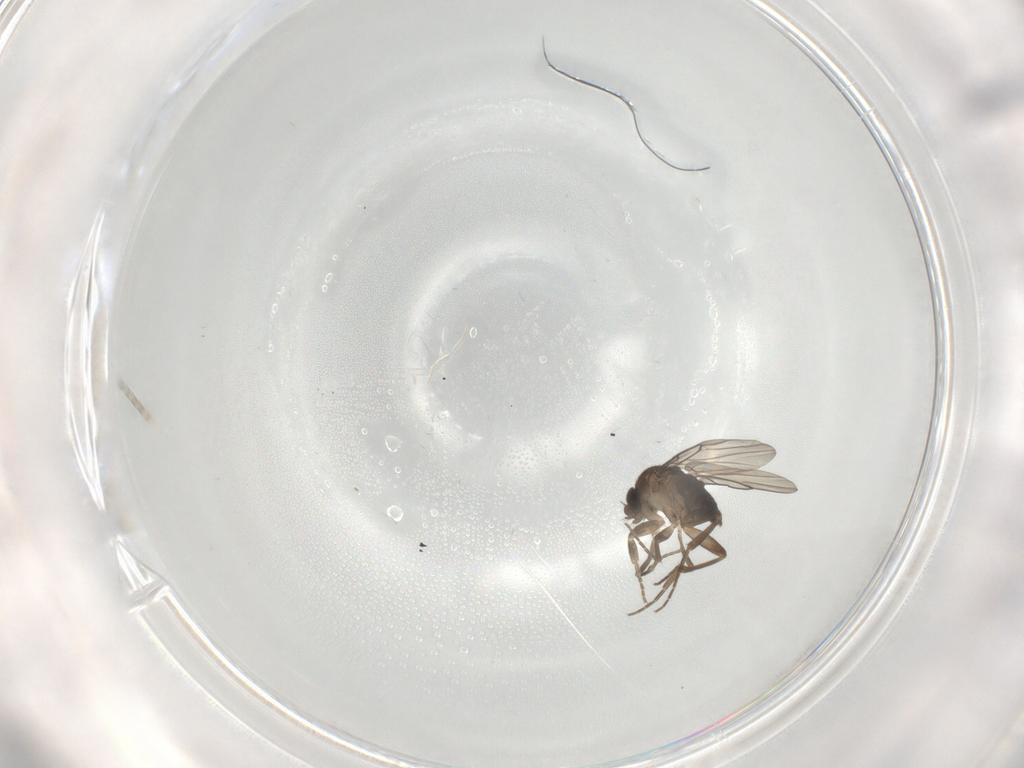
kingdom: Animalia
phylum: Arthropoda
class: Insecta
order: Diptera
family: Phoridae
